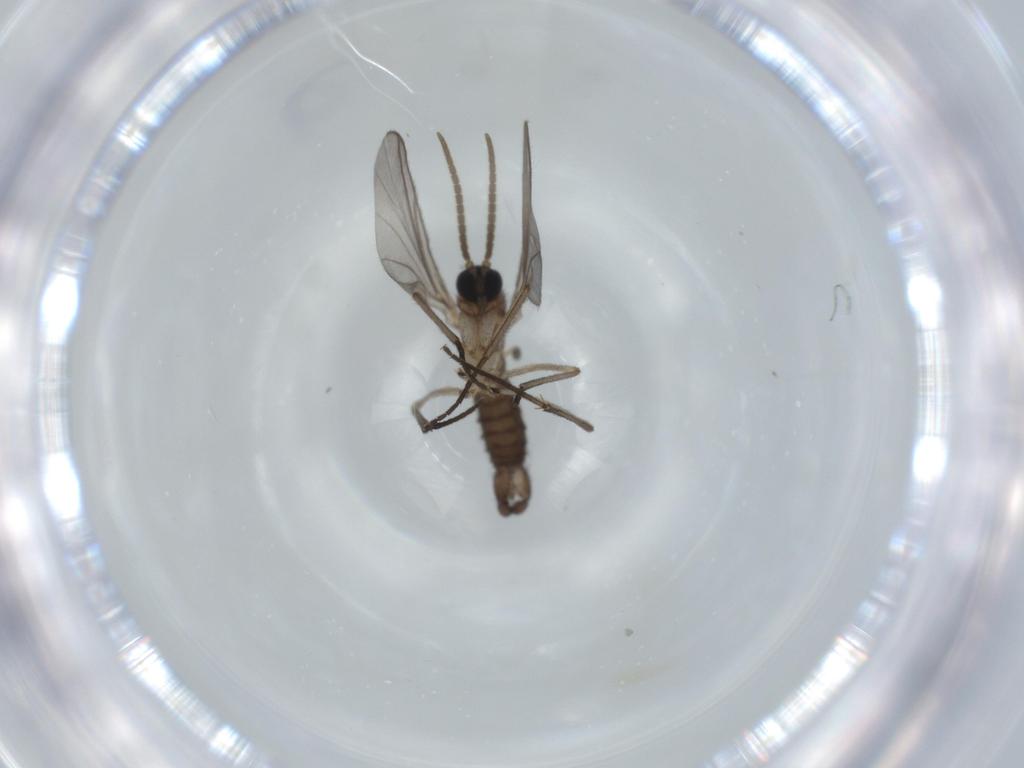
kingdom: Animalia
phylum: Arthropoda
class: Insecta
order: Diptera
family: Sciaridae
